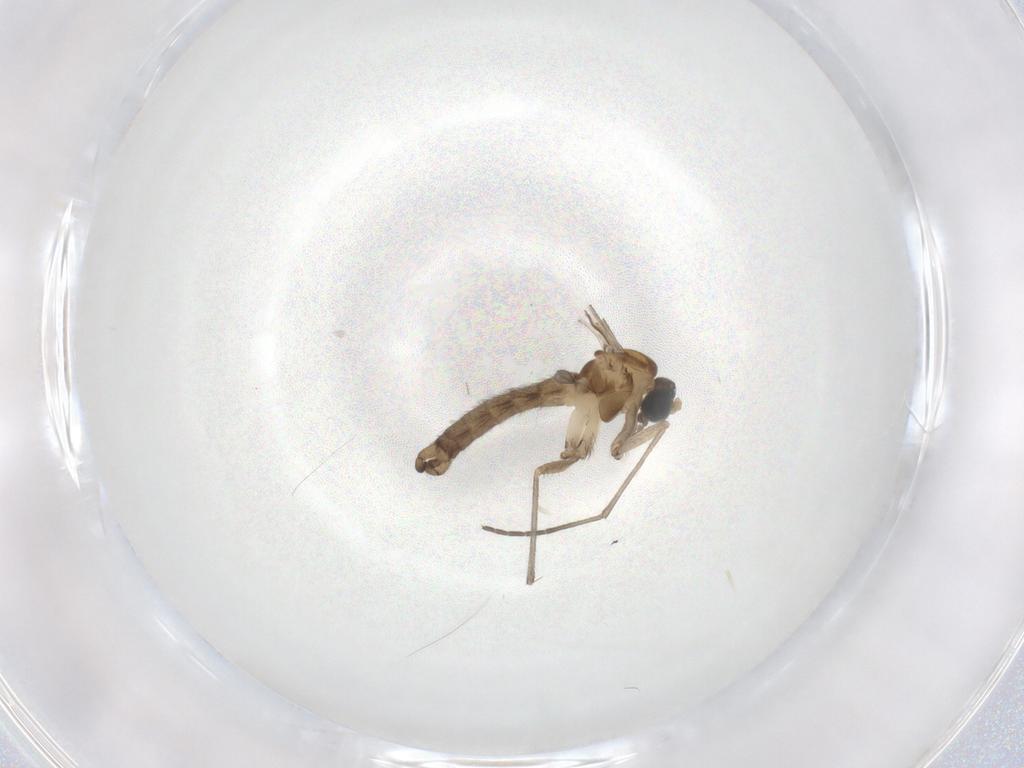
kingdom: Animalia
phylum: Arthropoda
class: Insecta
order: Diptera
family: Sciaridae
